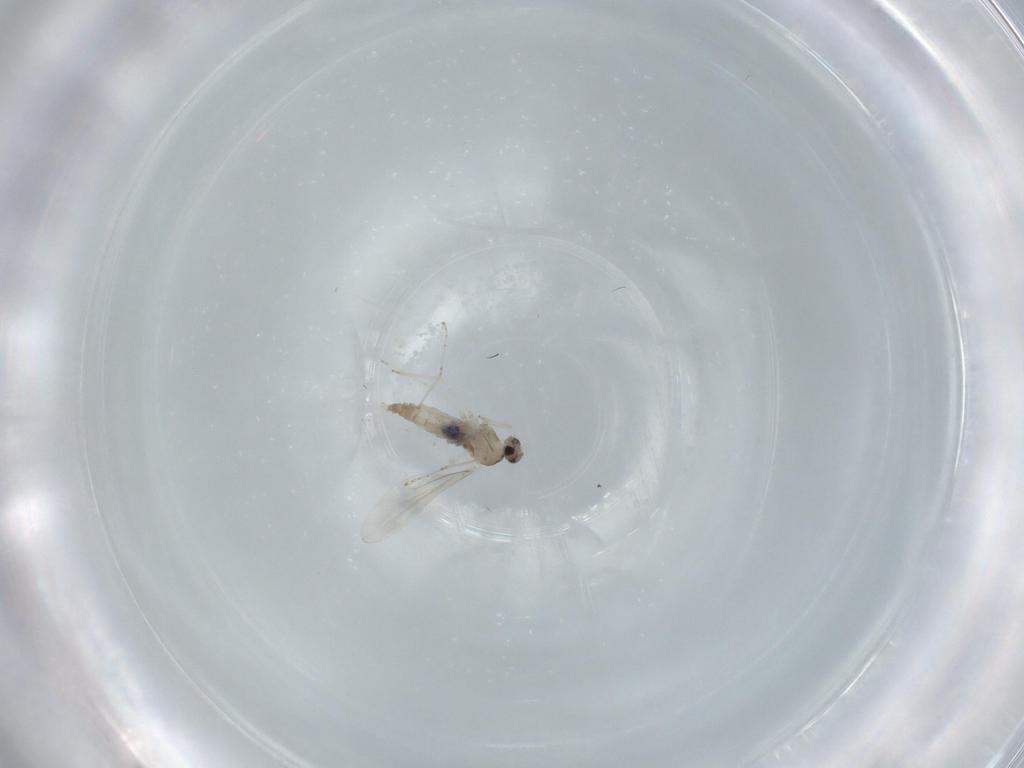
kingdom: Animalia
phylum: Arthropoda
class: Insecta
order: Diptera
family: Cecidomyiidae
